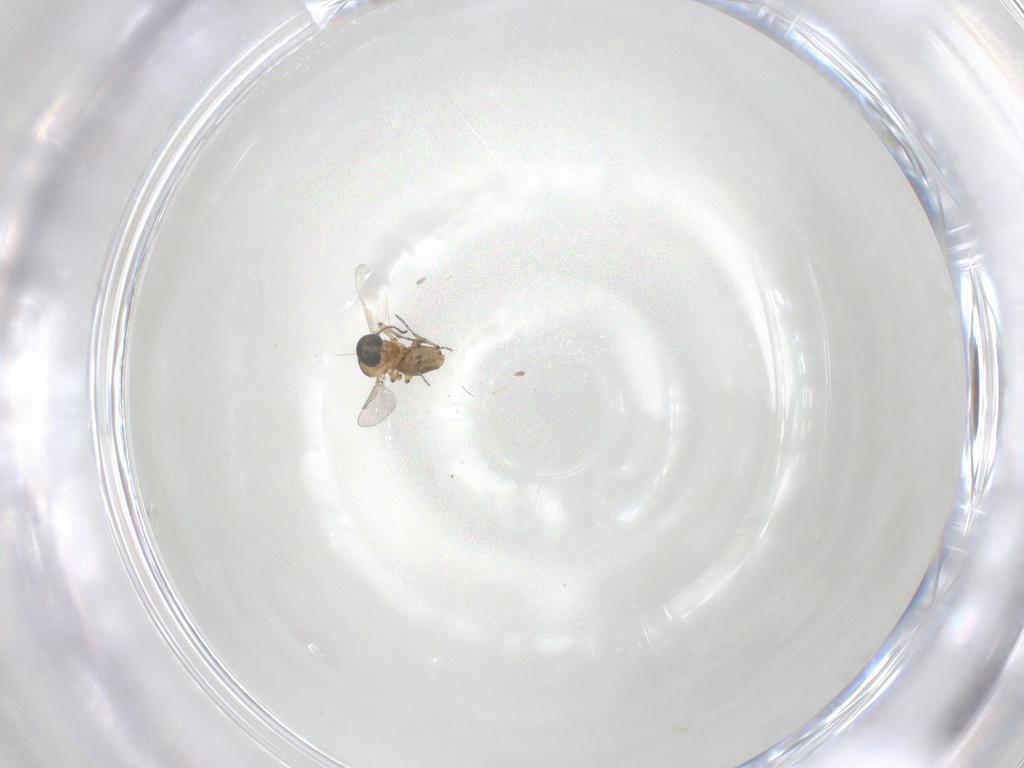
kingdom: Animalia
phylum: Arthropoda
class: Insecta
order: Diptera
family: Ceratopogonidae
